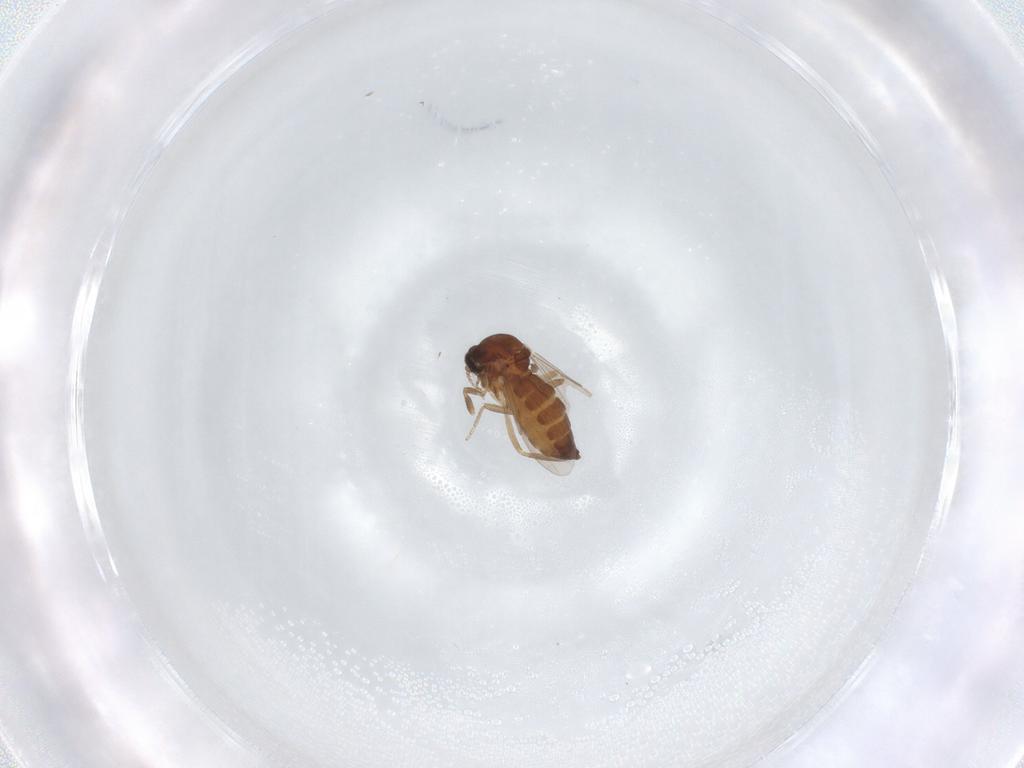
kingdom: Animalia
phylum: Arthropoda
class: Insecta
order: Diptera
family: Ceratopogonidae
